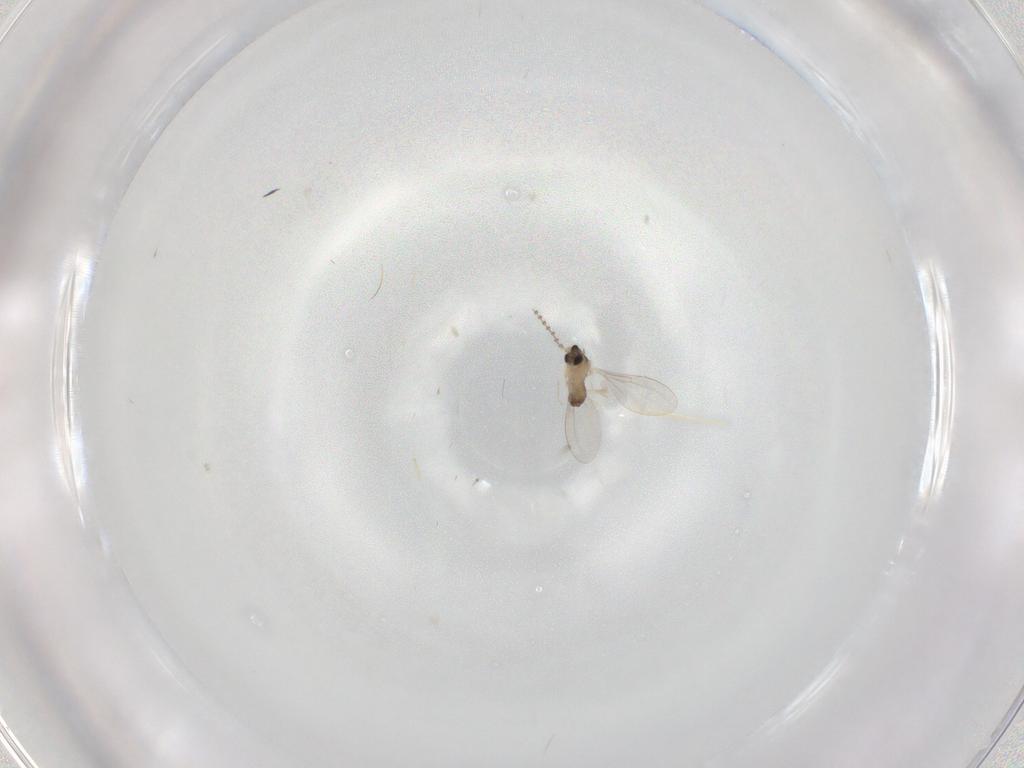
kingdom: Animalia
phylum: Arthropoda
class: Insecta
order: Diptera
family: Cecidomyiidae
